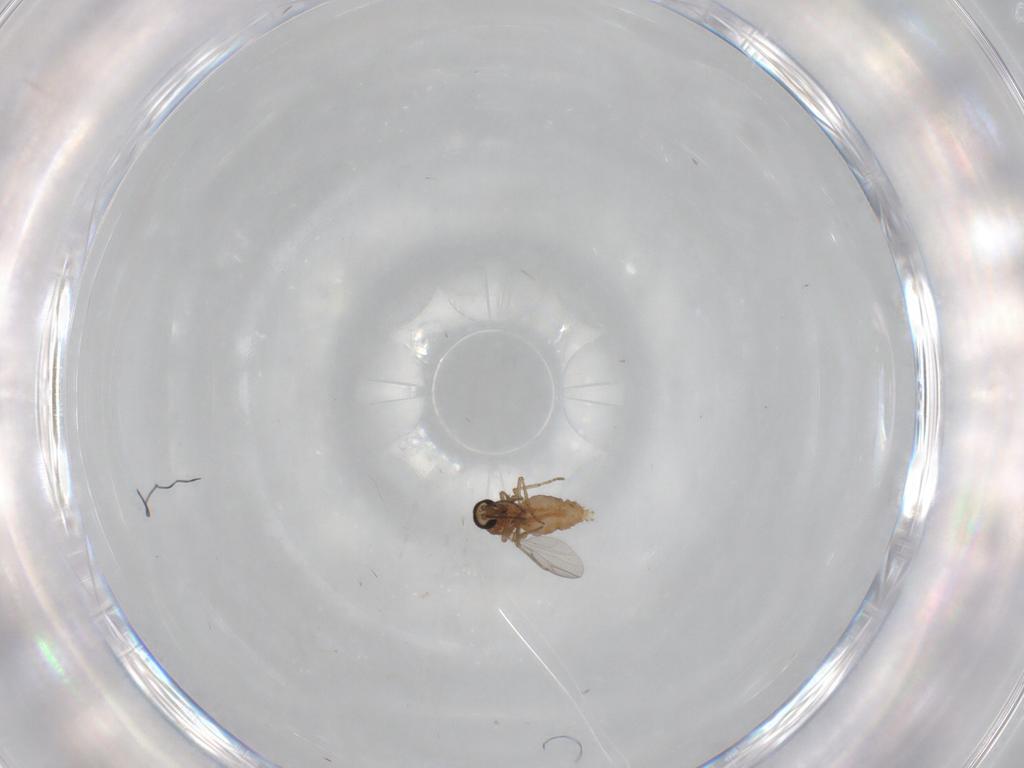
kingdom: Animalia
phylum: Arthropoda
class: Insecta
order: Diptera
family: Ceratopogonidae
